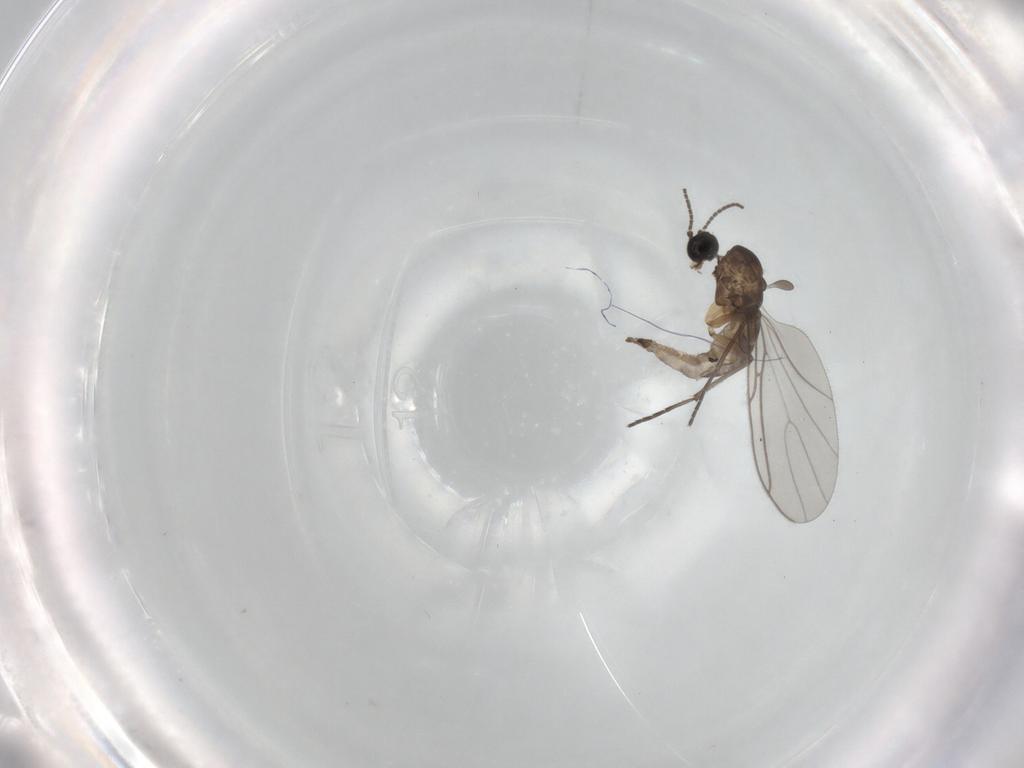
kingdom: Animalia
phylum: Arthropoda
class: Insecta
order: Diptera
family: Sciaridae
